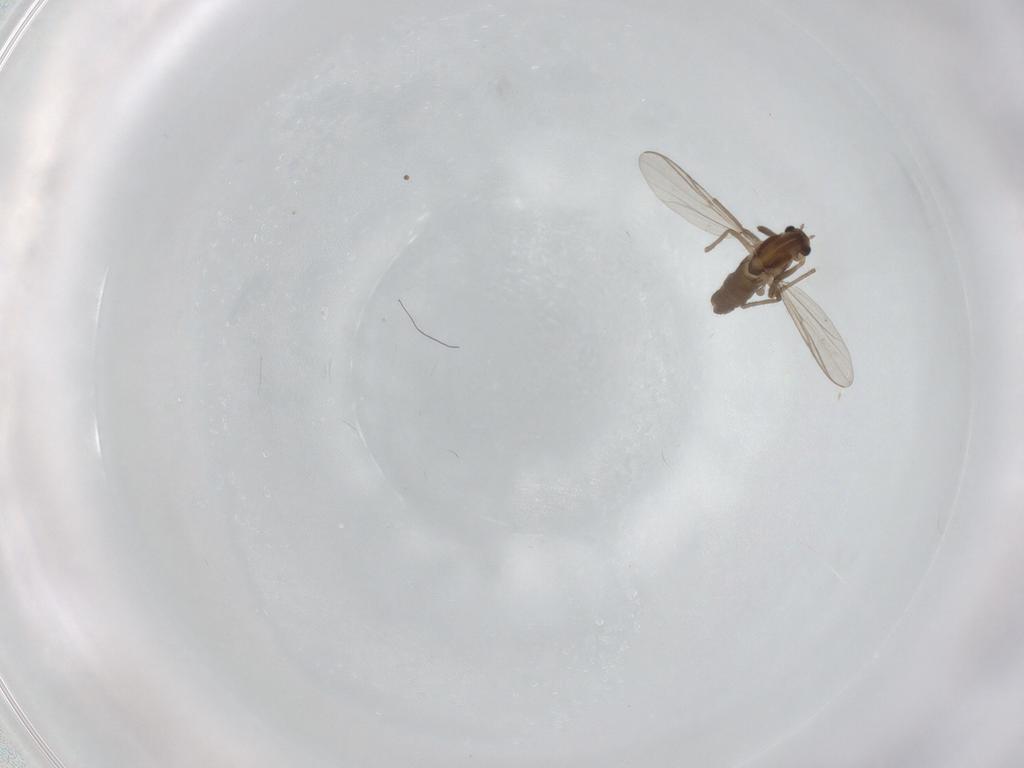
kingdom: Animalia
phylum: Arthropoda
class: Insecta
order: Diptera
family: Chironomidae
